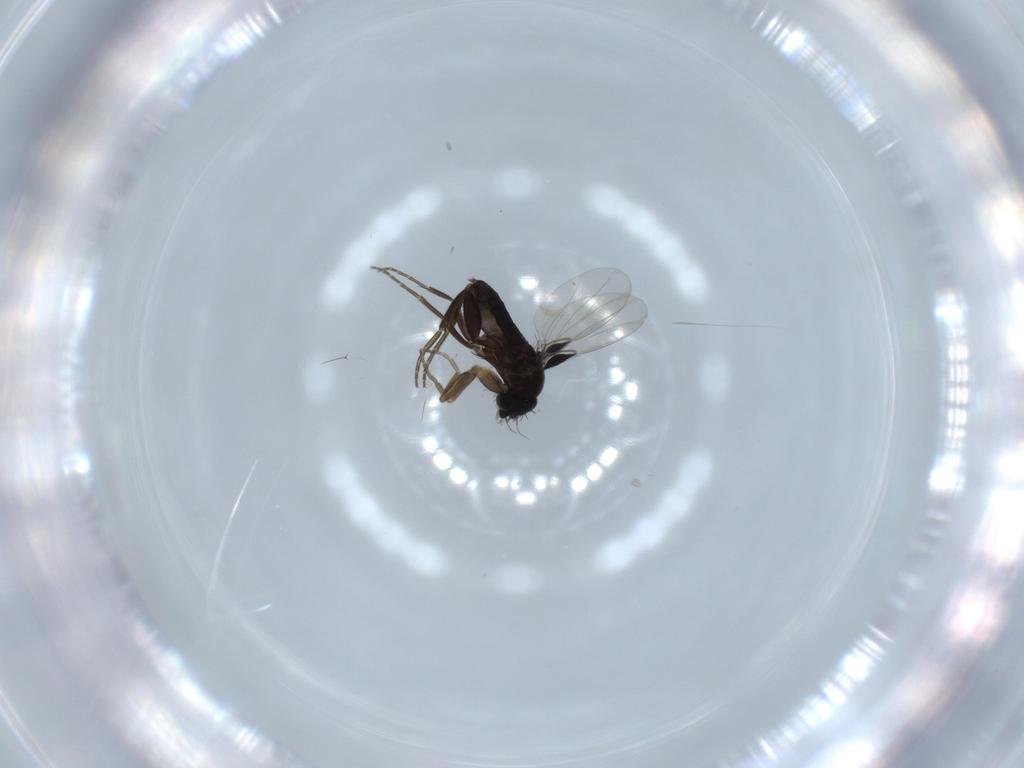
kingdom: Animalia
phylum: Arthropoda
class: Insecta
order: Diptera
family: Phoridae
